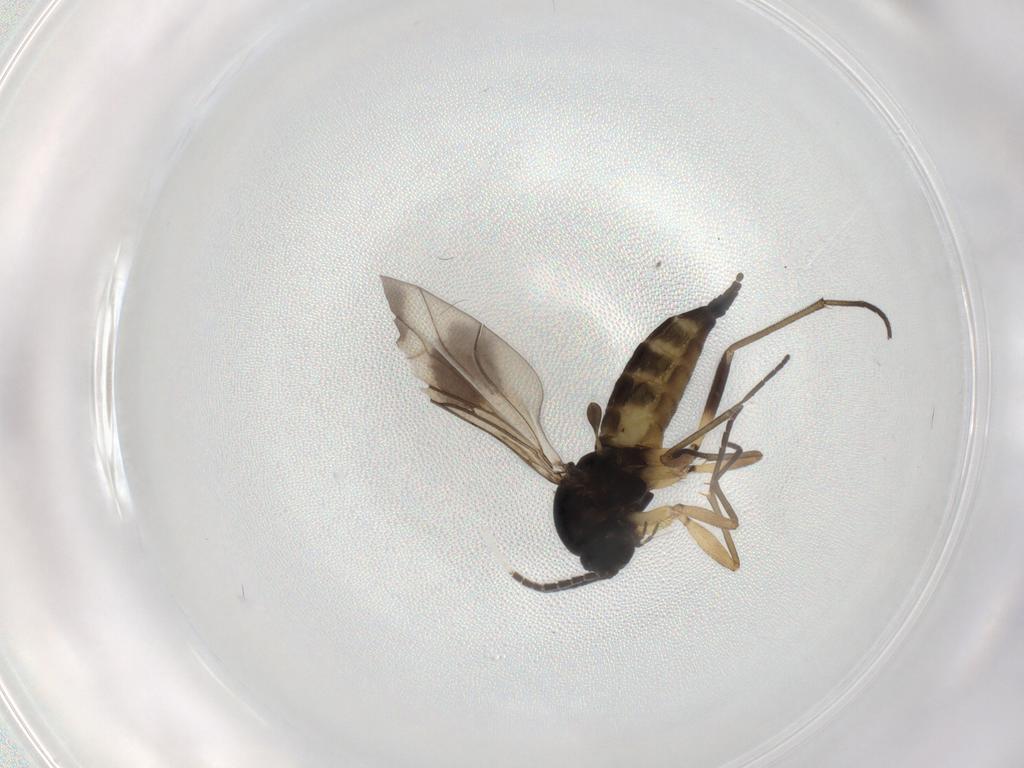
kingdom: Animalia
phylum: Arthropoda
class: Insecta
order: Diptera
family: Sciaridae
